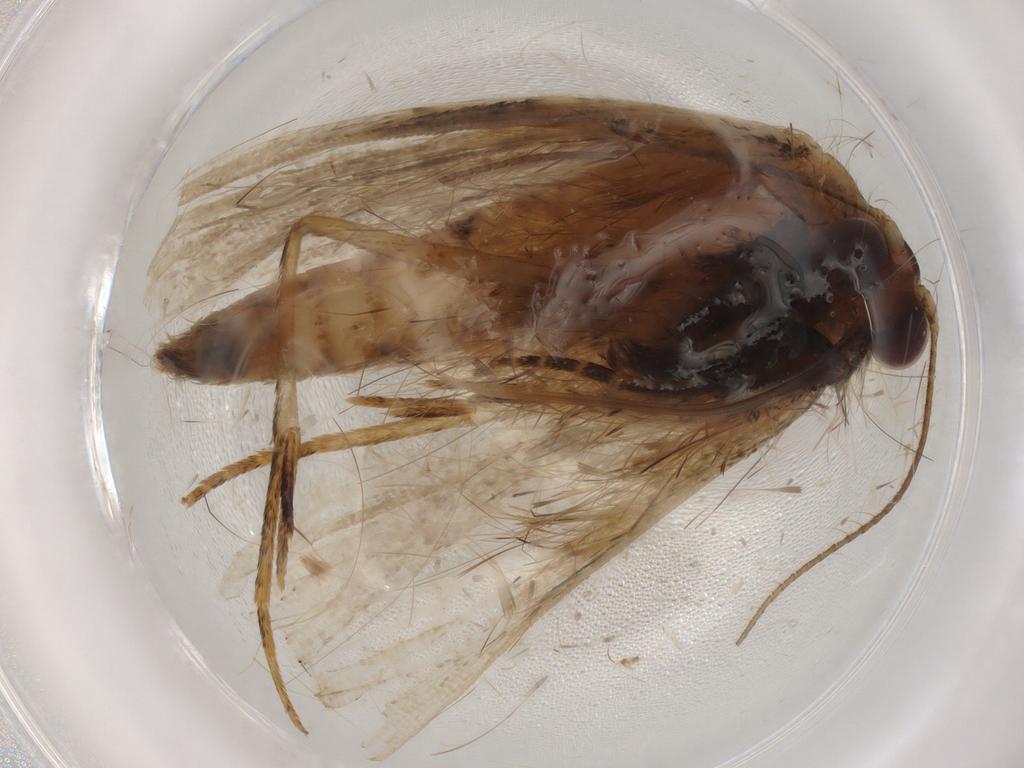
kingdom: Animalia
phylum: Arthropoda
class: Insecta
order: Lepidoptera
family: Erebidae
